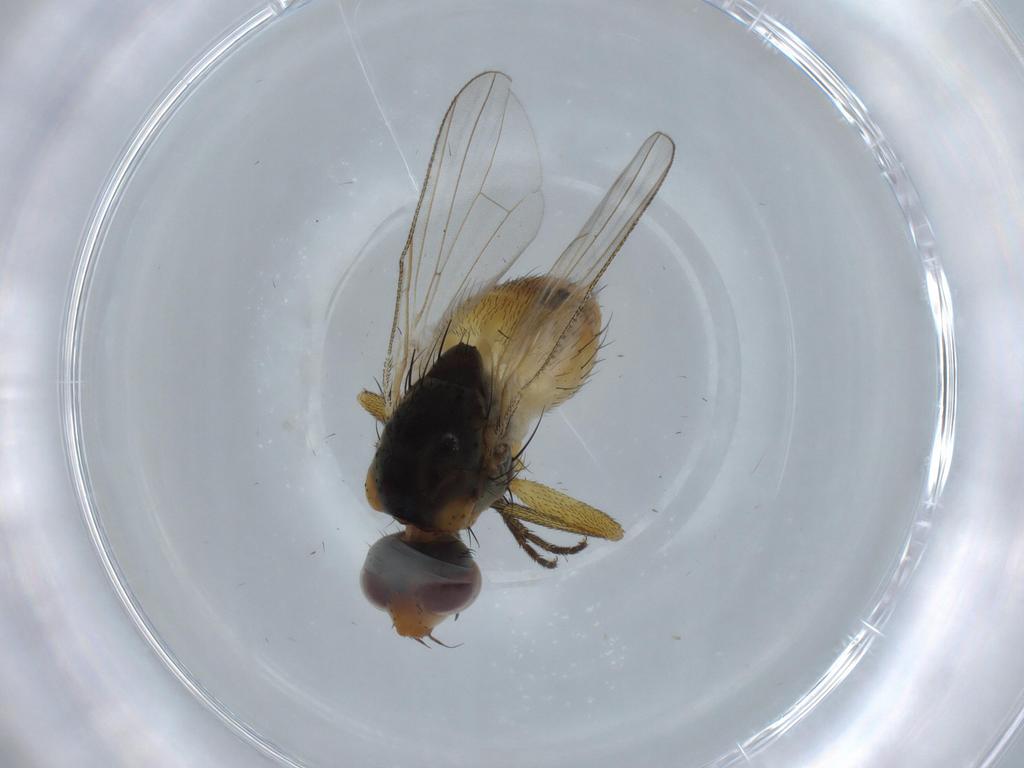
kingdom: Animalia
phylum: Arthropoda
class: Insecta
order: Diptera
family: Muscidae
